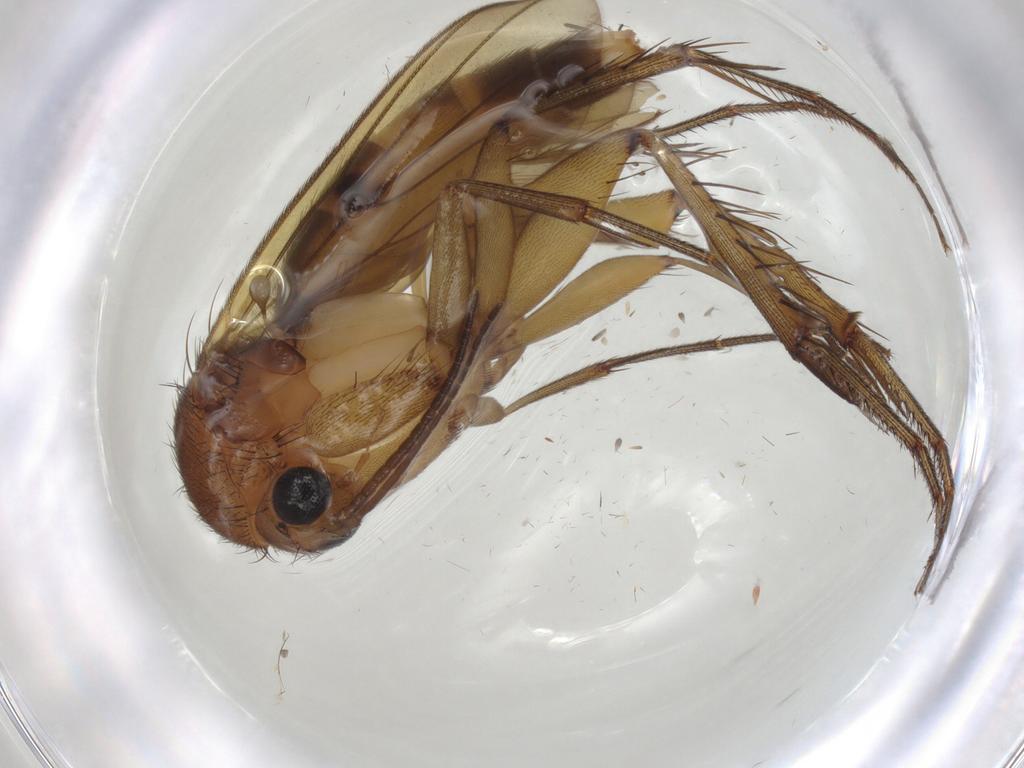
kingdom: Animalia
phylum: Arthropoda
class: Insecta
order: Diptera
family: Mycetophilidae
